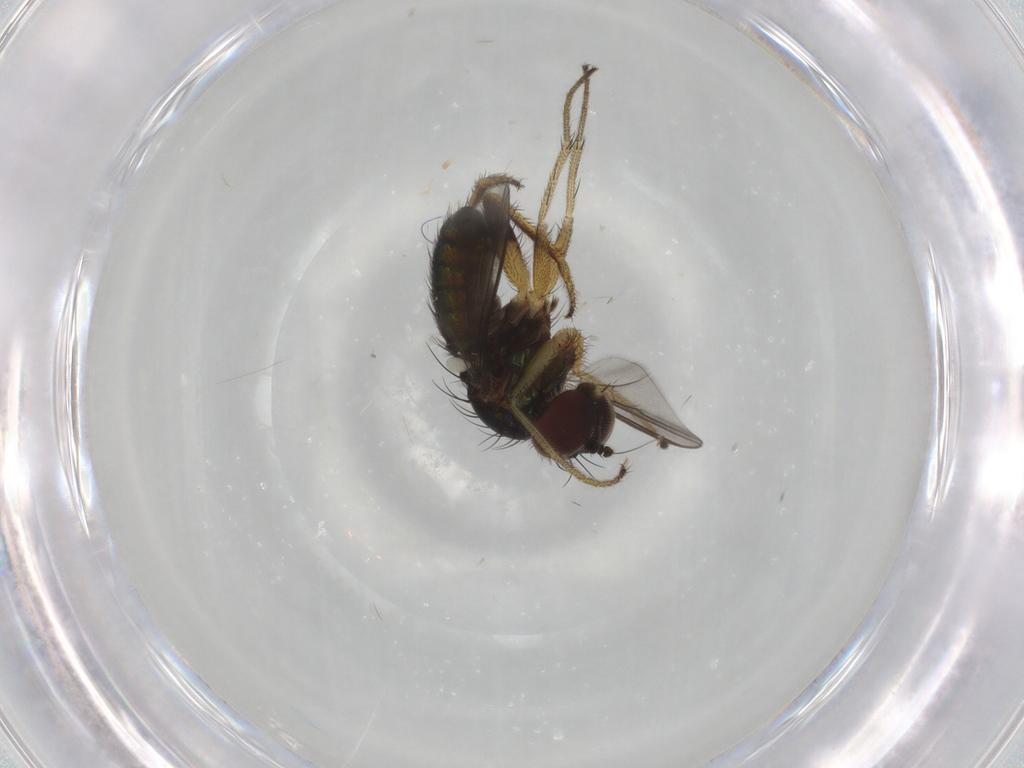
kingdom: Animalia
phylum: Arthropoda
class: Insecta
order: Diptera
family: Dolichopodidae
